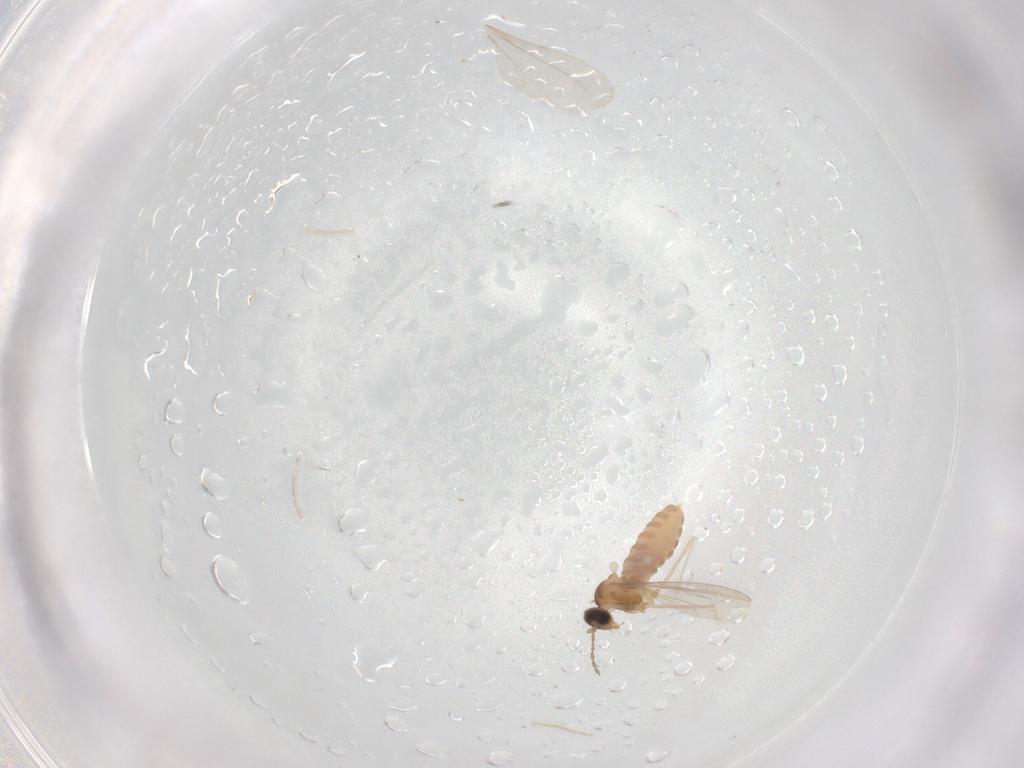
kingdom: Animalia
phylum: Arthropoda
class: Insecta
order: Diptera
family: Cecidomyiidae
